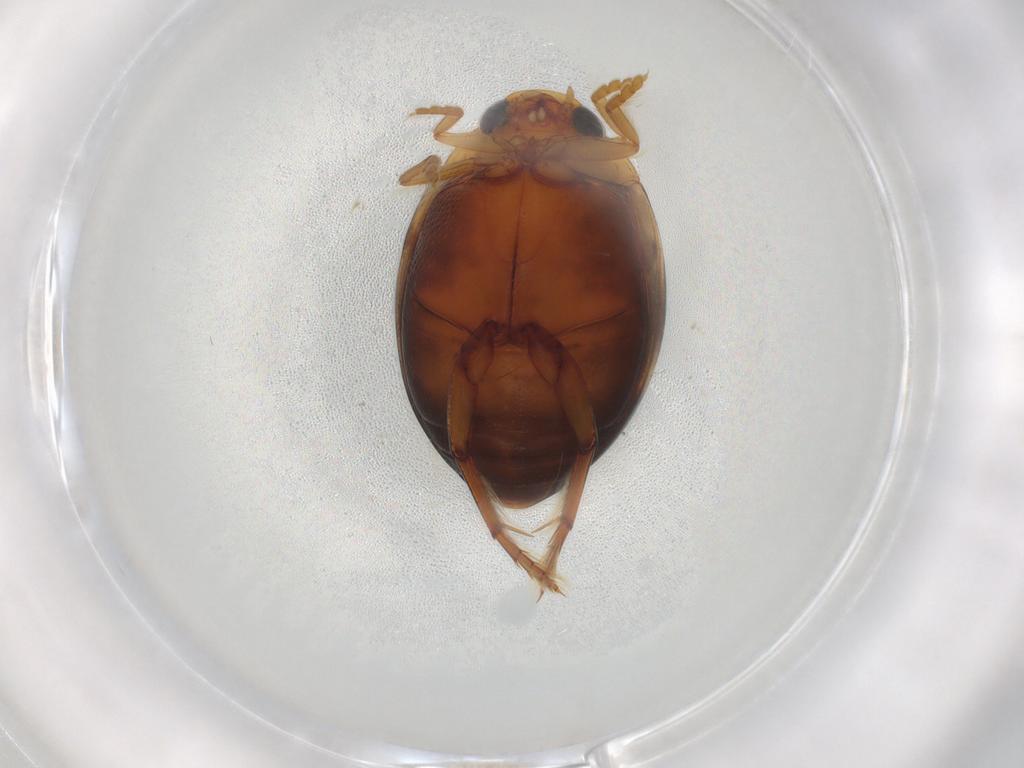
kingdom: Animalia
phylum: Arthropoda
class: Insecta
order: Coleoptera
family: Dytiscidae
